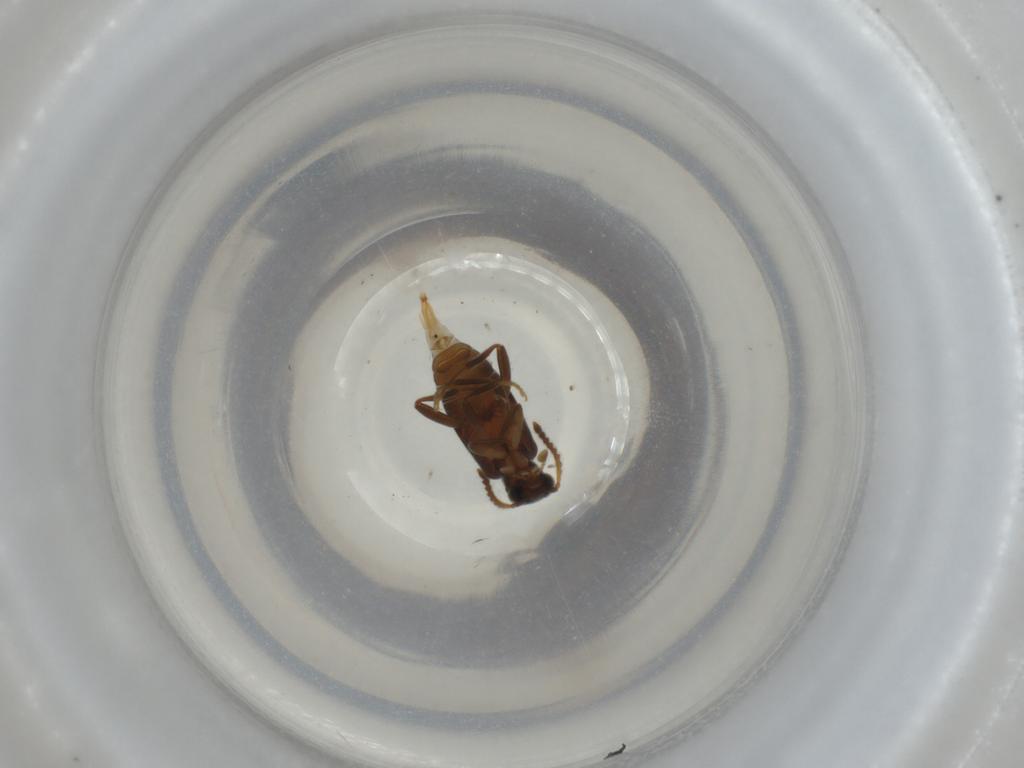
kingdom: Animalia
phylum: Arthropoda
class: Insecta
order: Coleoptera
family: Aderidae
